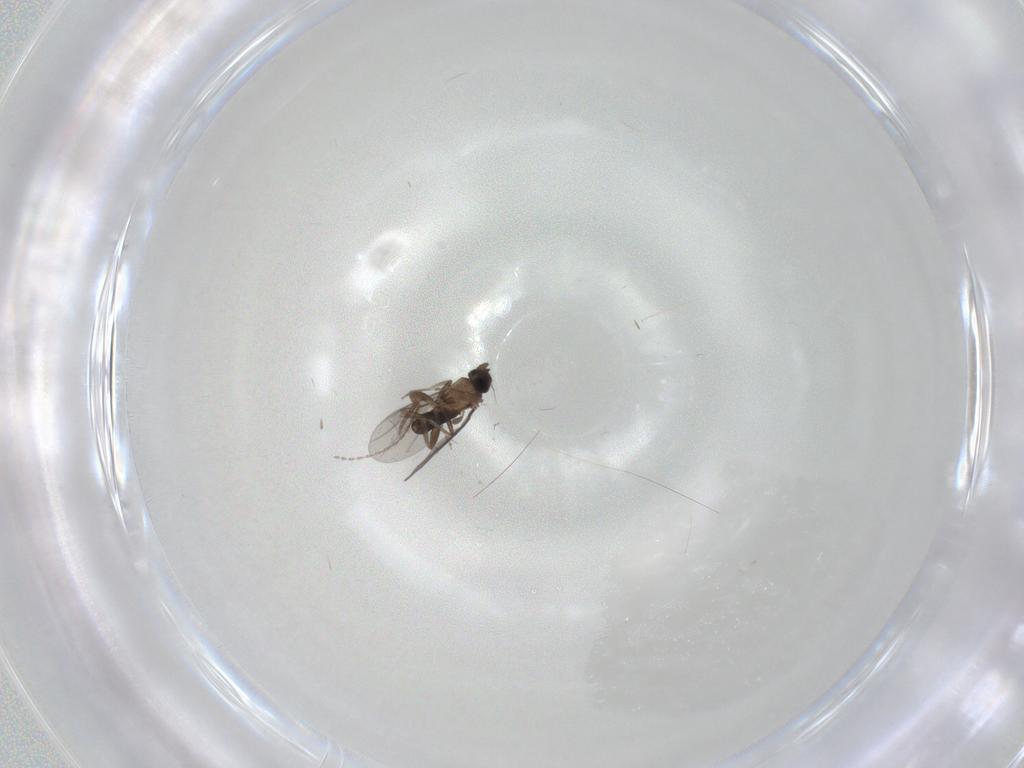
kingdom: Animalia
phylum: Arthropoda
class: Insecta
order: Diptera
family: Cecidomyiidae
